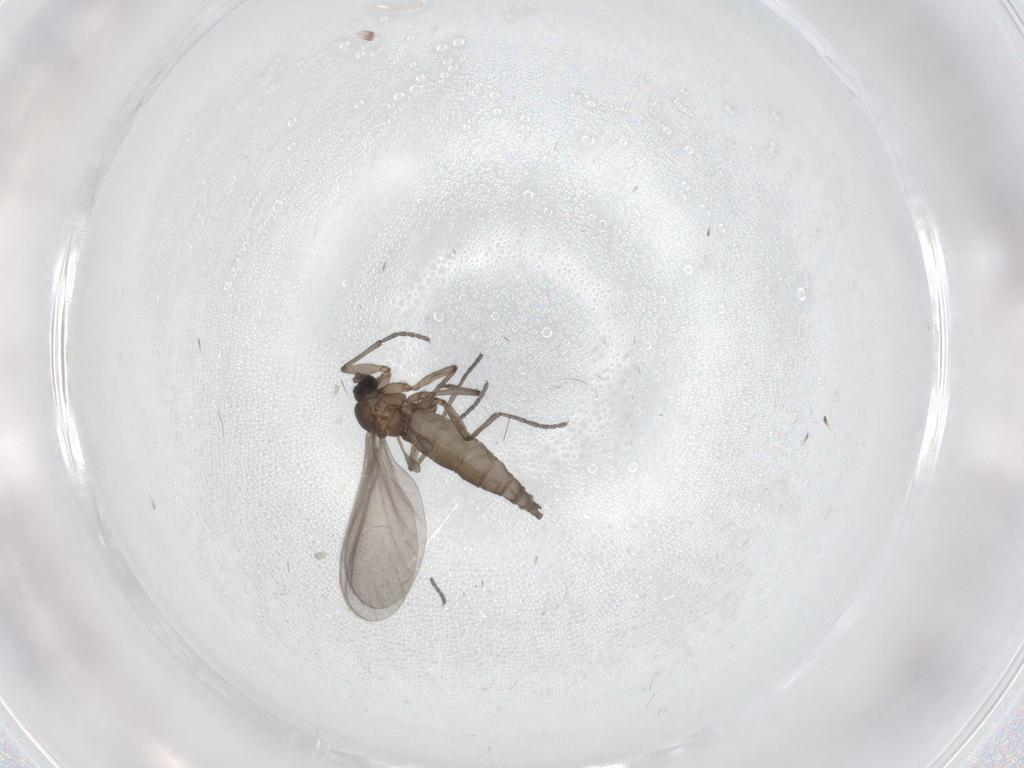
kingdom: Animalia
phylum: Arthropoda
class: Insecta
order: Diptera
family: Sciaridae
